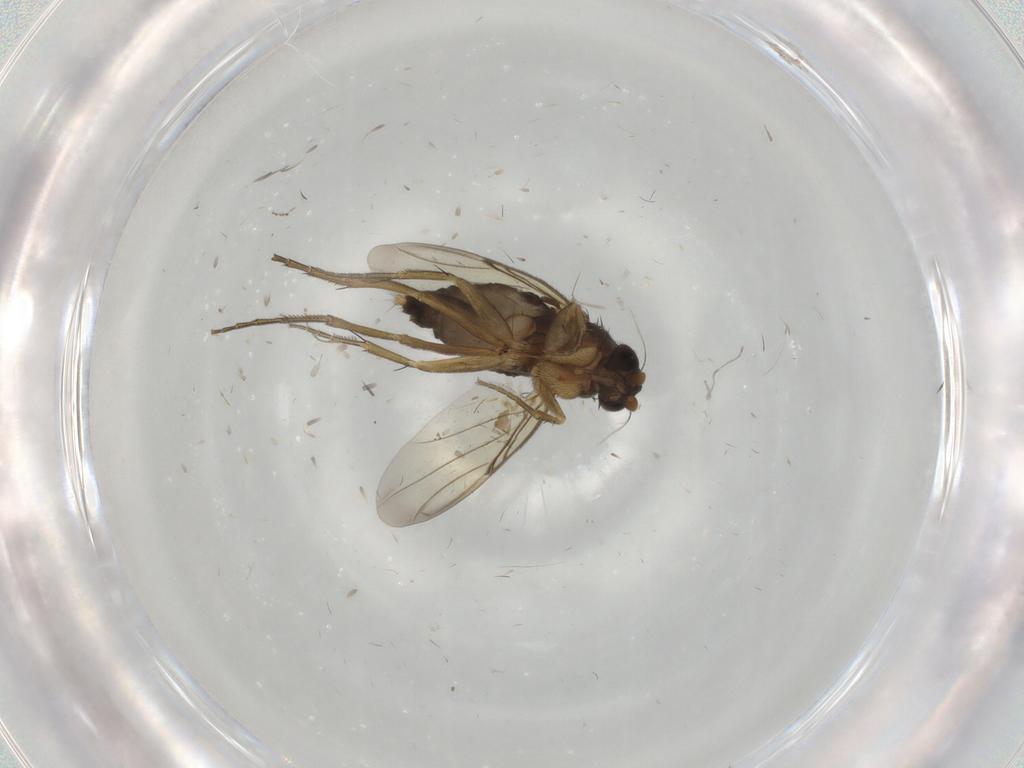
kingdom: Animalia
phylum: Arthropoda
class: Insecta
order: Diptera
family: Phoridae
